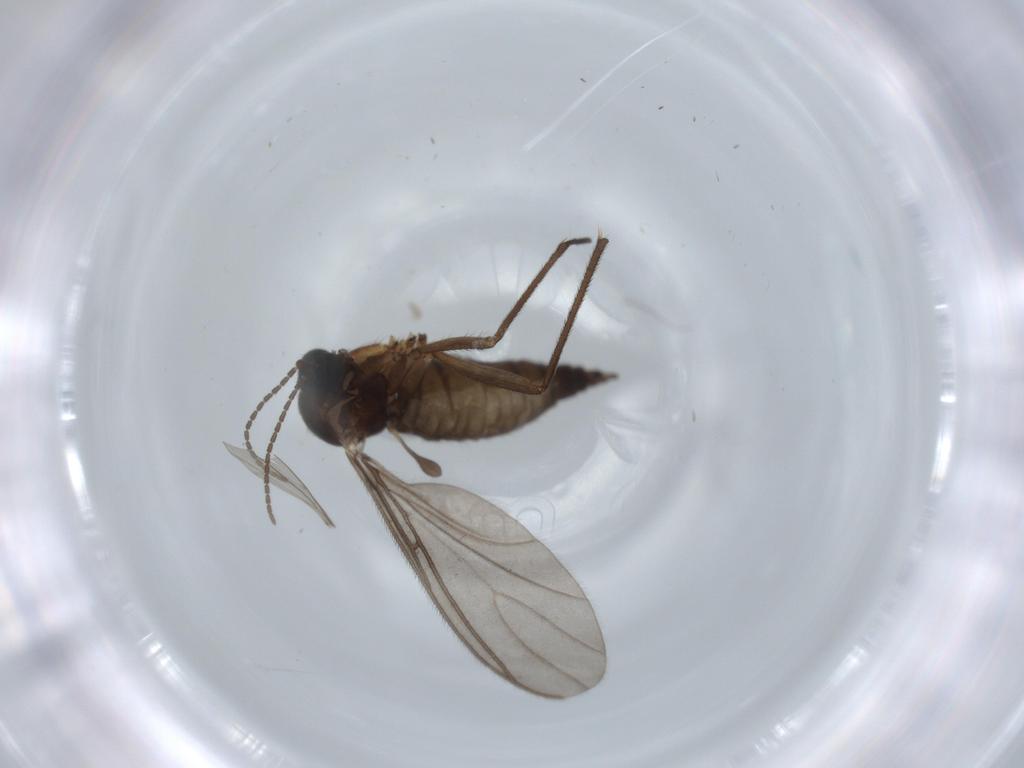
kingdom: Animalia
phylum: Arthropoda
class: Insecta
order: Diptera
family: Sciaridae
